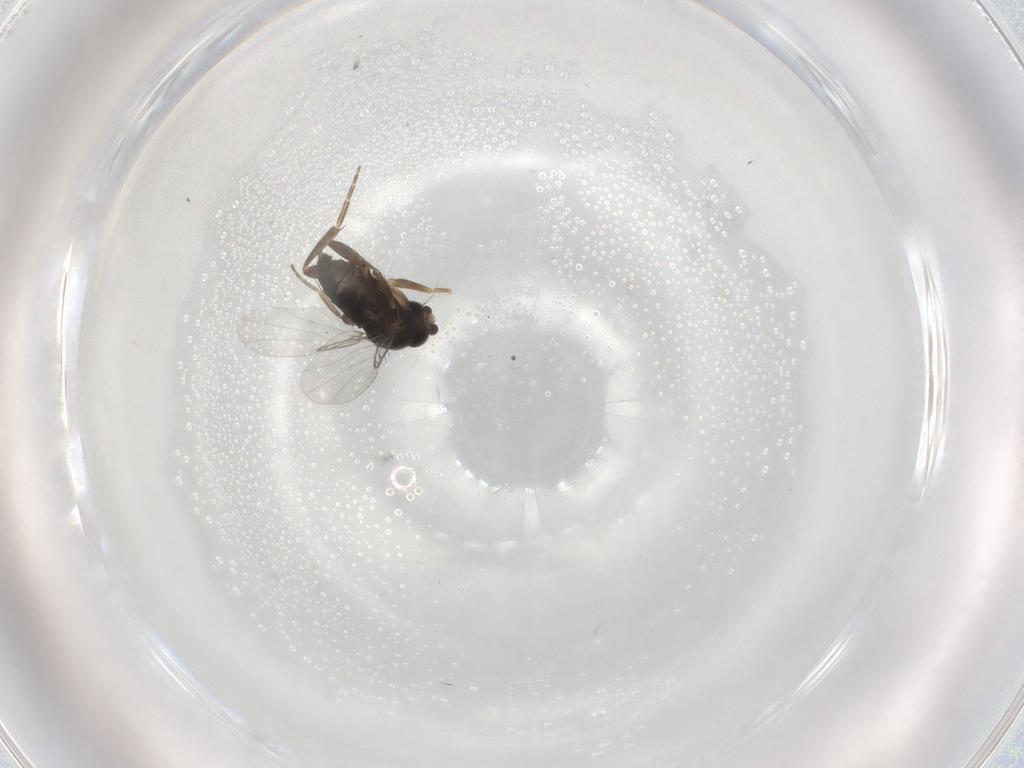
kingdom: Animalia
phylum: Arthropoda
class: Insecta
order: Diptera
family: Phoridae
